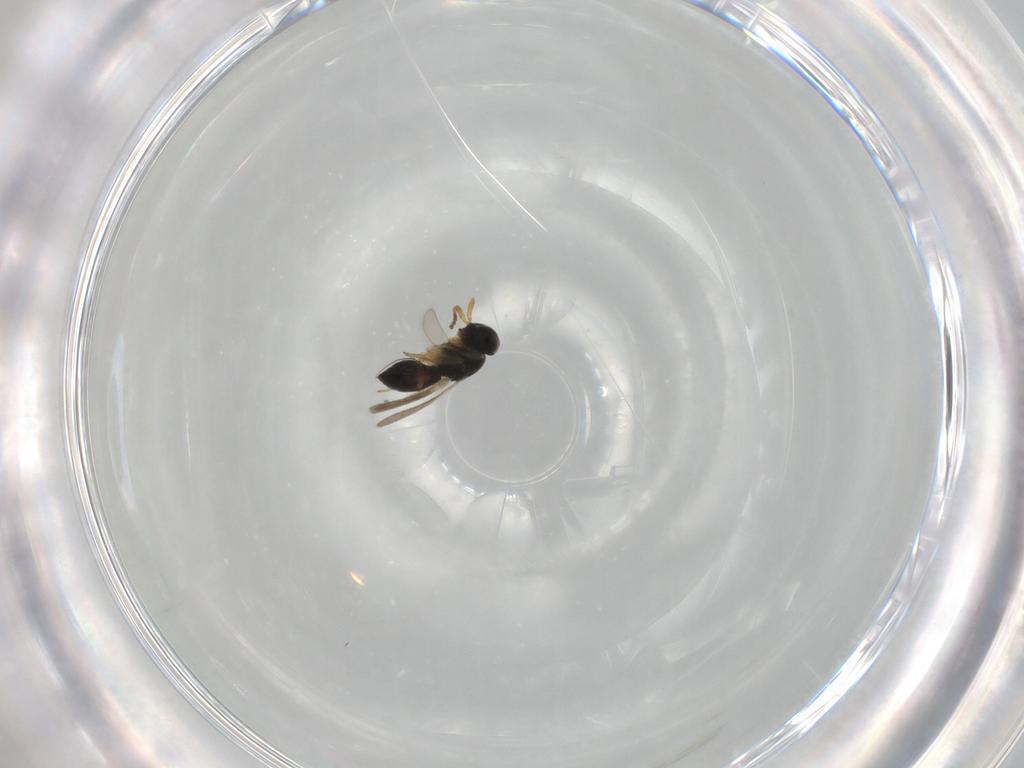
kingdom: Animalia
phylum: Arthropoda
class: Insecta
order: Hymenoptera
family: Scelionidae
